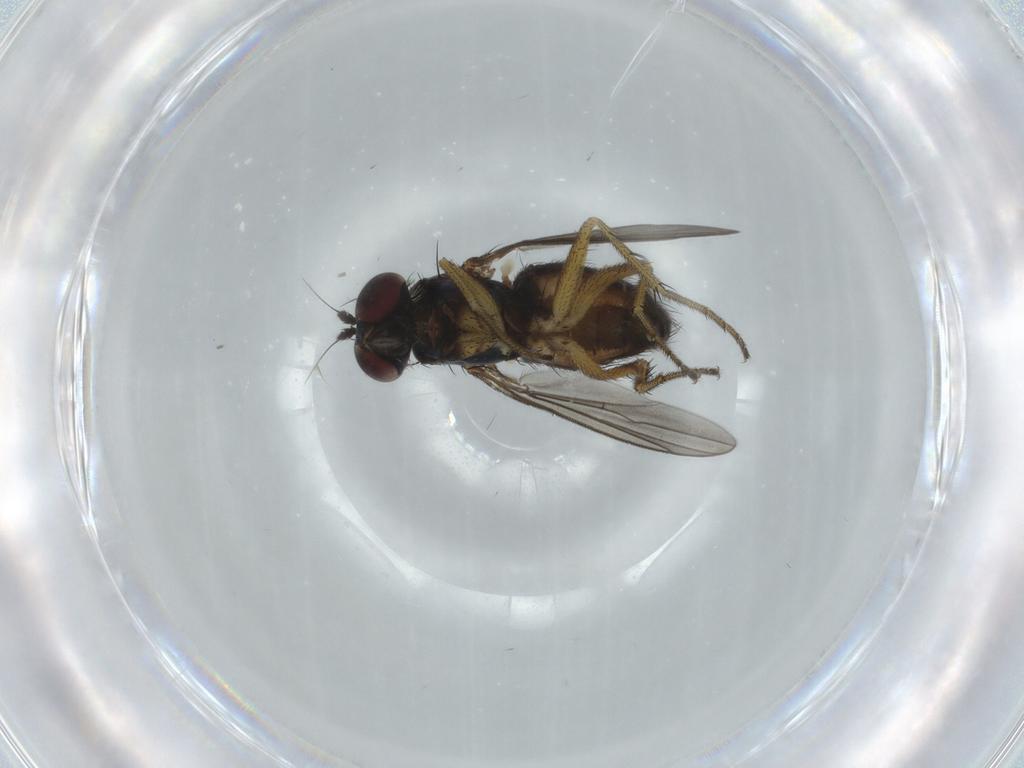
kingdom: Animalia
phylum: Arthropoda
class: Insecta
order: Diptera
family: Dolichopodidae
